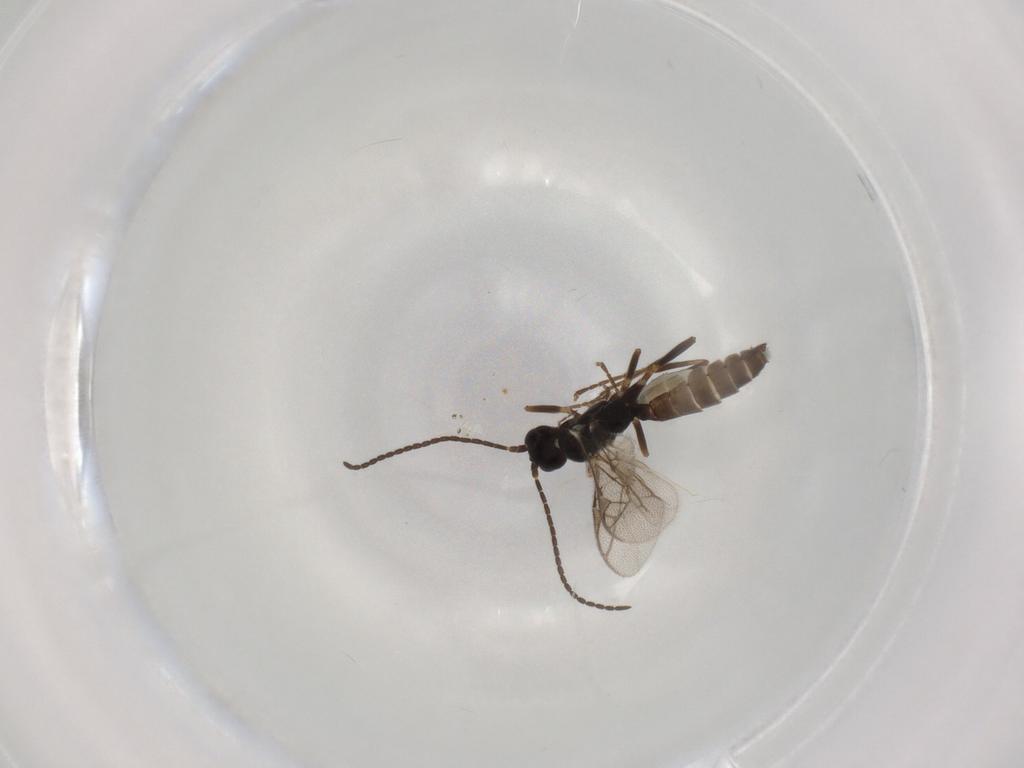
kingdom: Animalia
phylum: Arthropoda
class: Insecta
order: Hymenoptera
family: Ichneumonidae
